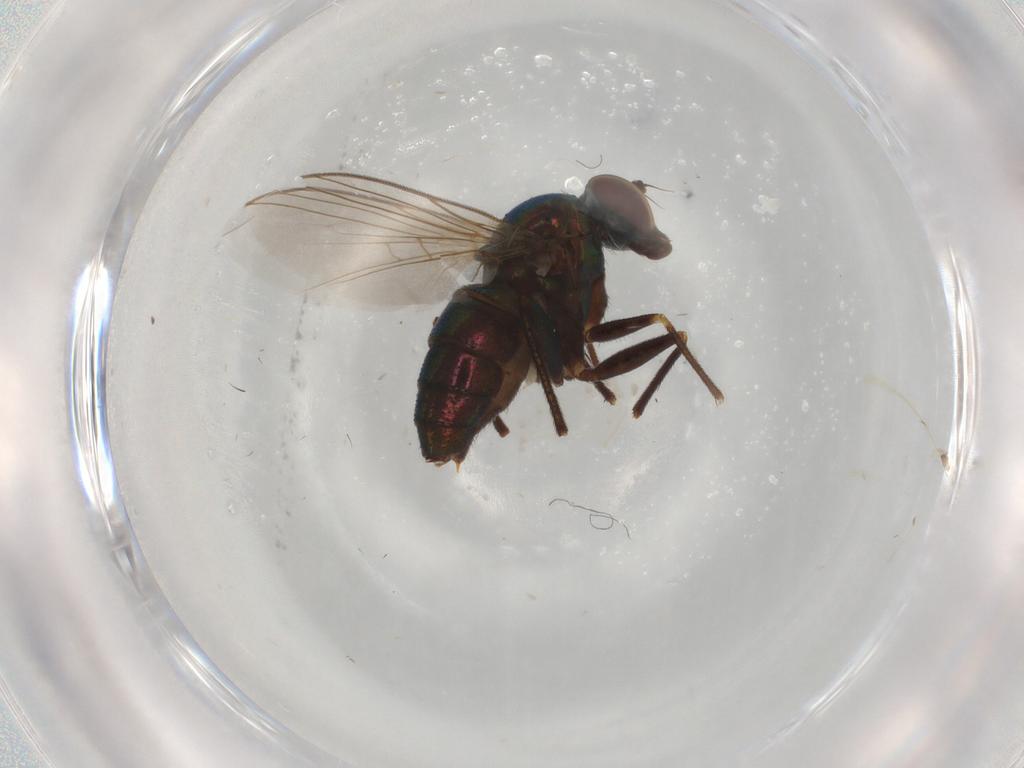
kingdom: Animalia
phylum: Arthropoda
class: Insecta
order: Diptera
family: Dolichopodidae
